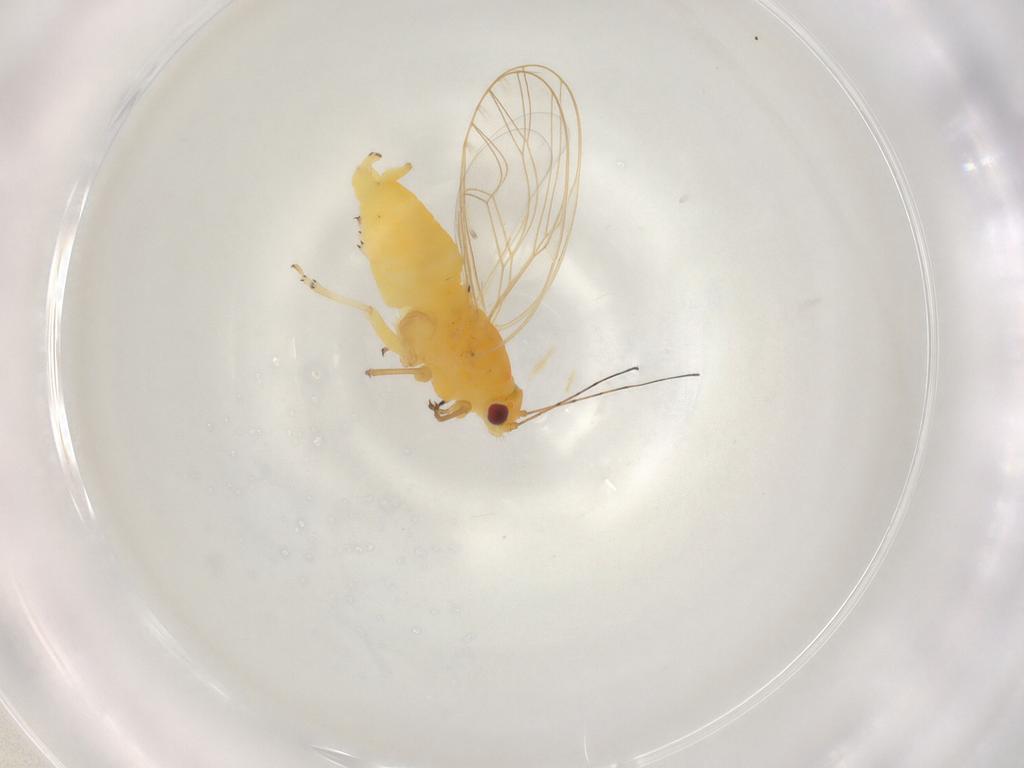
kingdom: Animalia
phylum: Arthropoda
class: Insecta
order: Hemiptera
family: Psyllidae
